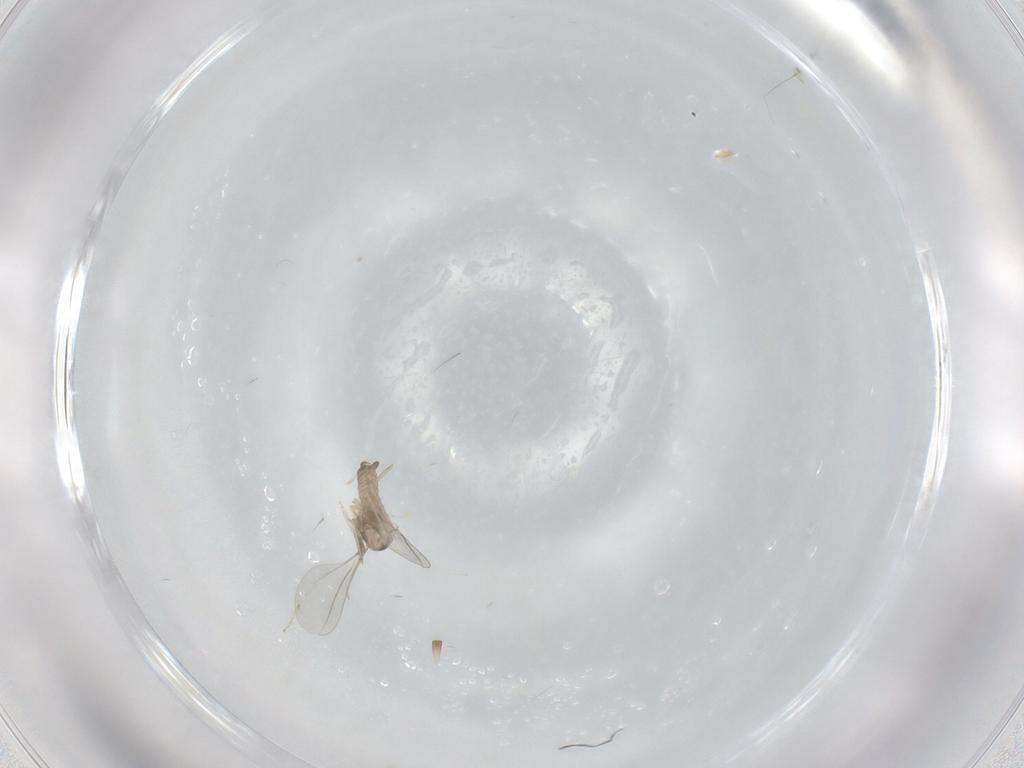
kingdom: Animalia
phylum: Arthropoda
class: Insecta
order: Diptera
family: Cecidomyiidae
